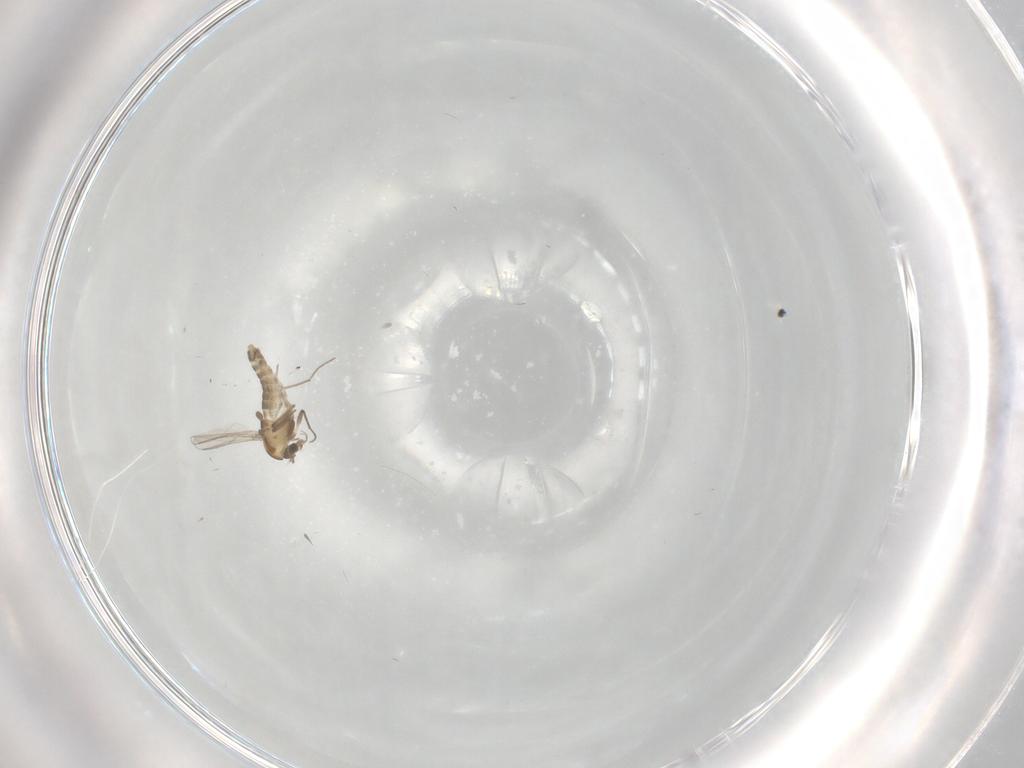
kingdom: Animalia
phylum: Arthropoda
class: Insecta
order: Diptera
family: Chironomidae
